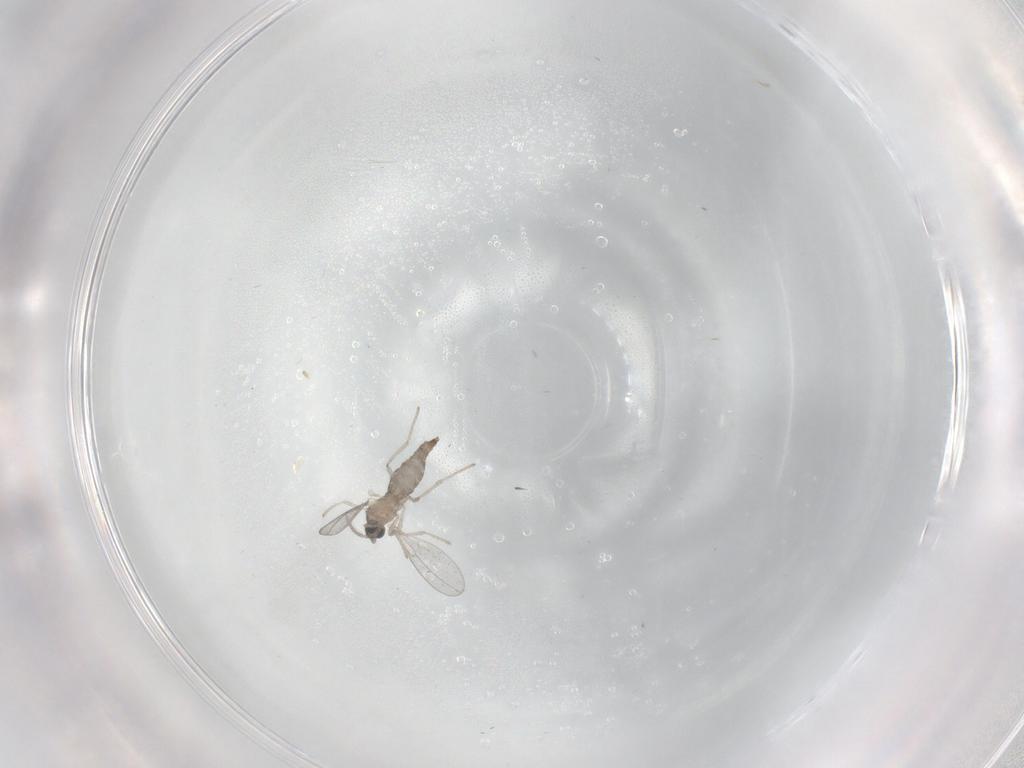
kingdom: Animalia
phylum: Arthropoda
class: Insecta
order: Diptera
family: Cecidomyiidae
